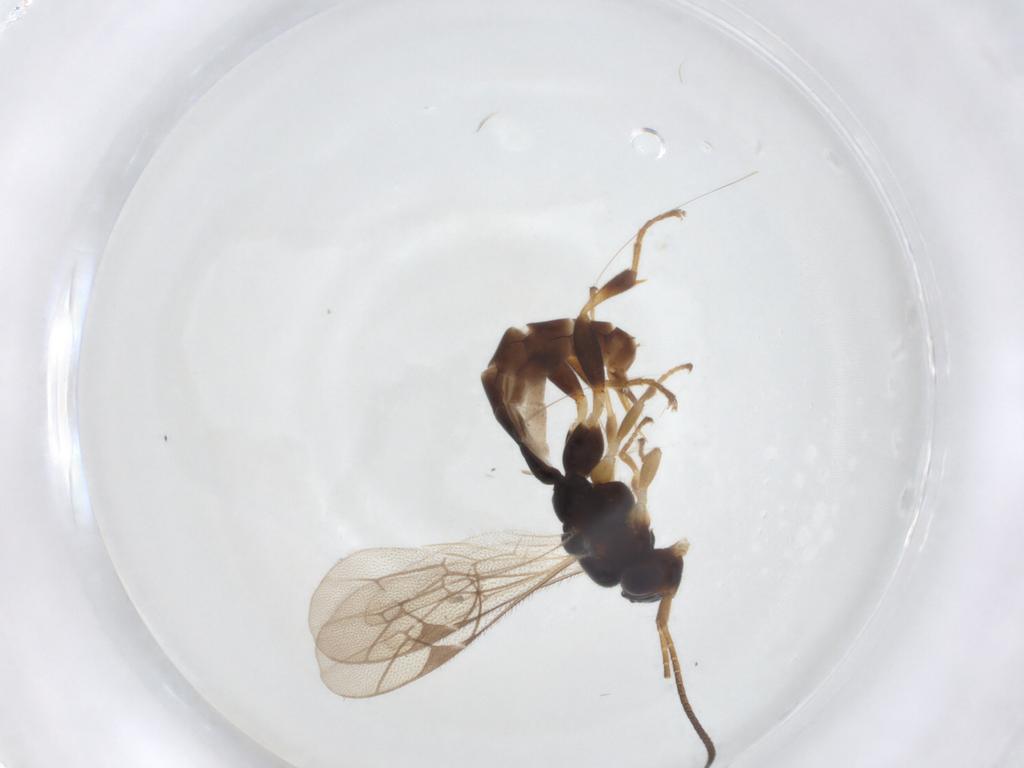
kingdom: Animalia
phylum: Arthropoda
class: Insecta
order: Hymenoptera
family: Ichneumonidae
